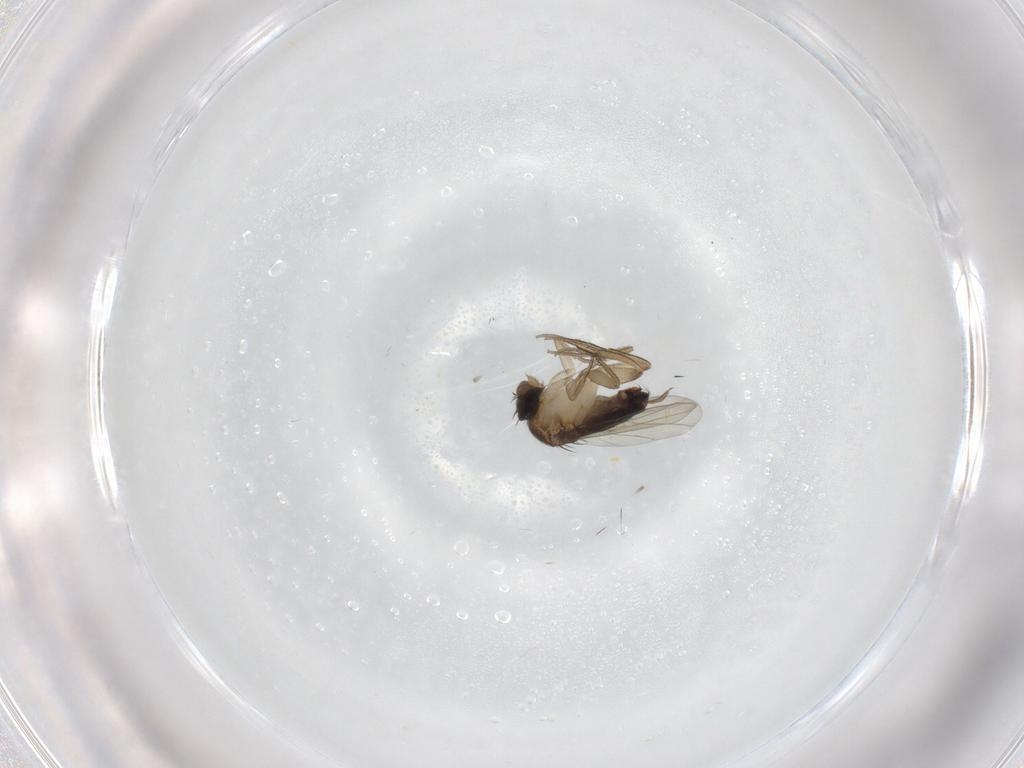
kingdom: Animalia
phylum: Arthropoda
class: Insecta
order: Diptera
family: Phoridae
